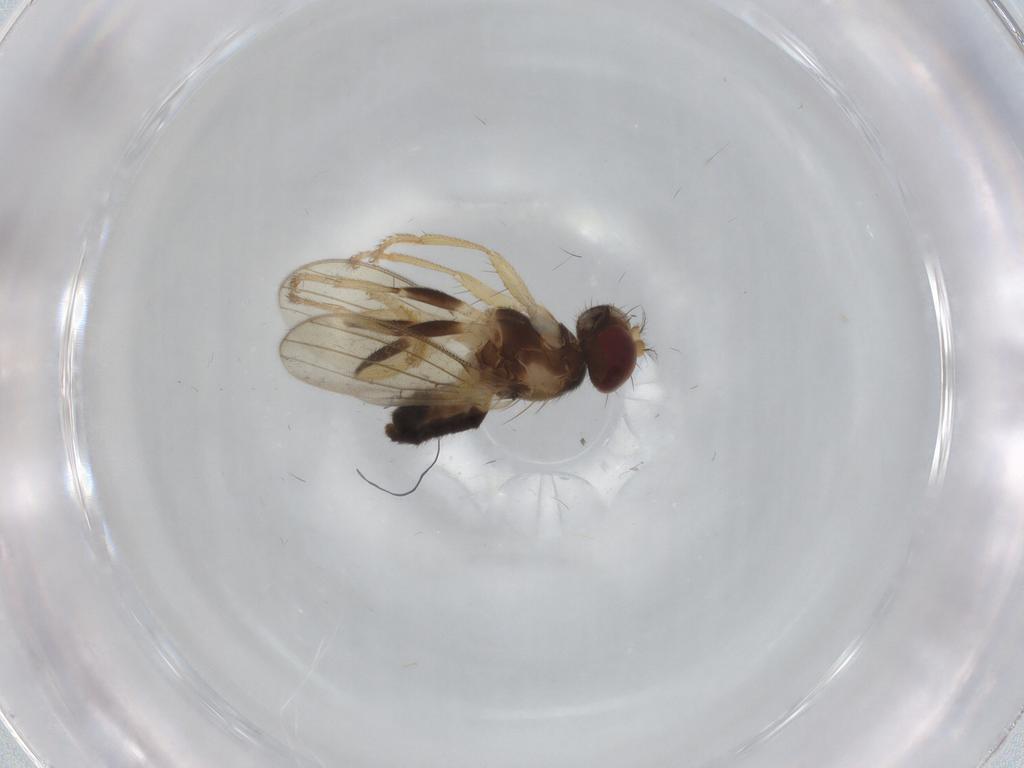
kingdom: Animalia
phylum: Arthropoda
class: Insecta
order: Diptera
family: Periscelididae
